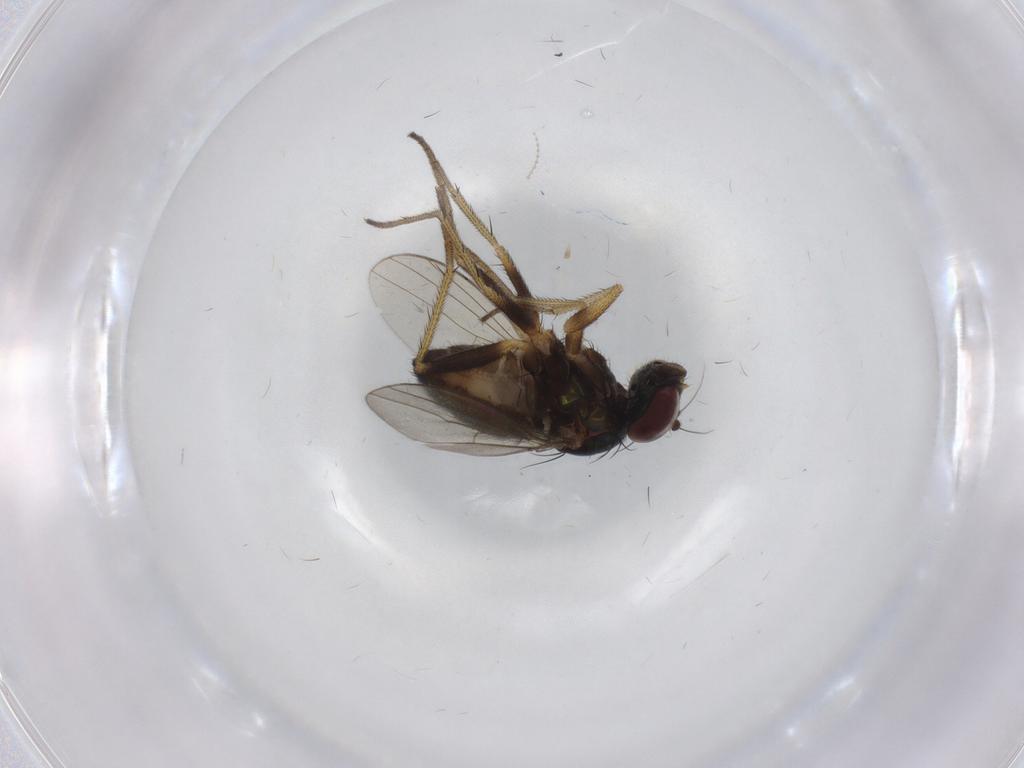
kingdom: Animalia
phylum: Arthropoda
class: Insecta
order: Diptera
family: Dolichopodidae
